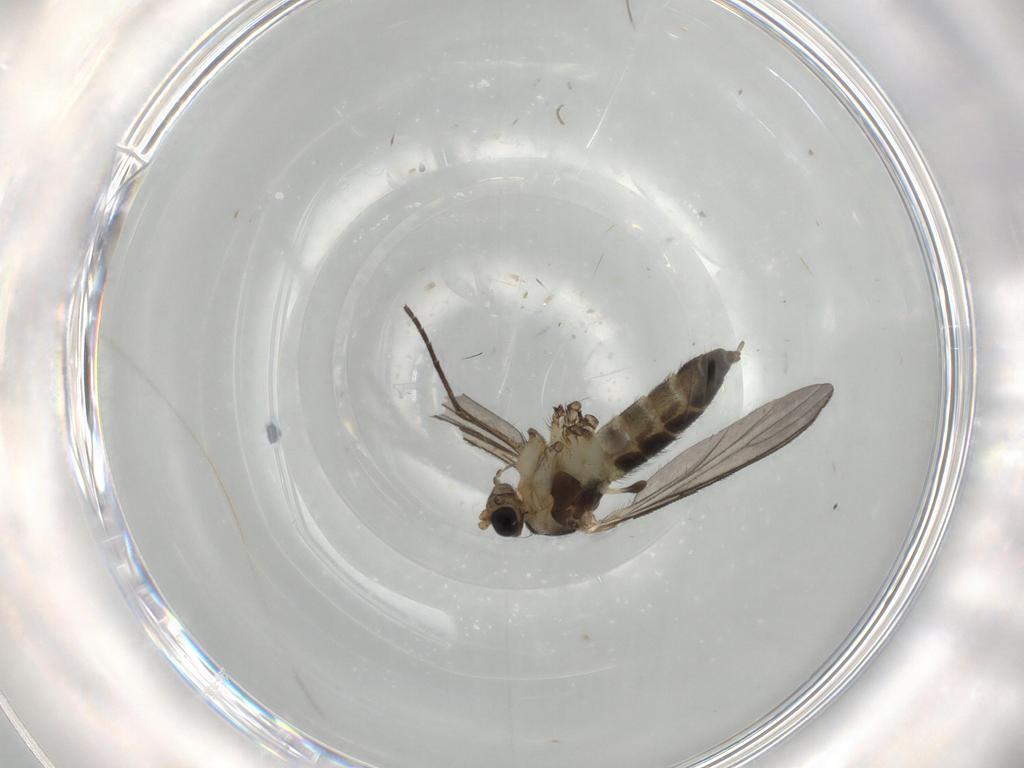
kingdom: Animalia
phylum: Arthropoda
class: Insecta
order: Diptera
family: Sciaridae
